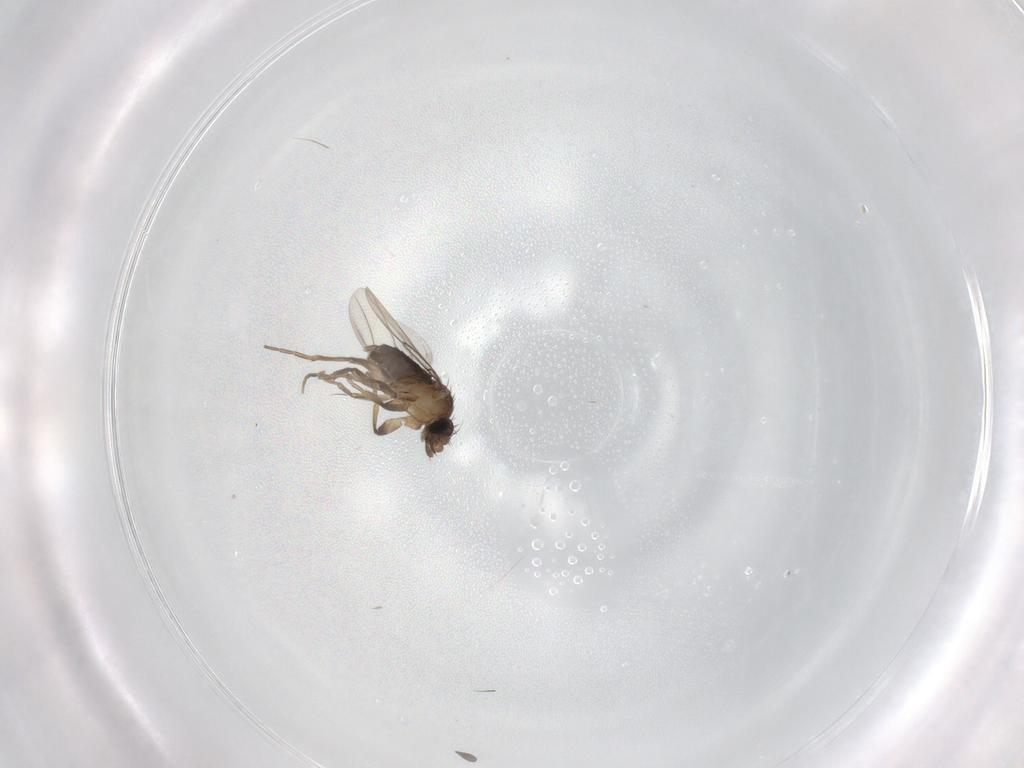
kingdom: Animalia
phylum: Arthropoda
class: Insecta
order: Diptera
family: Phoridae
